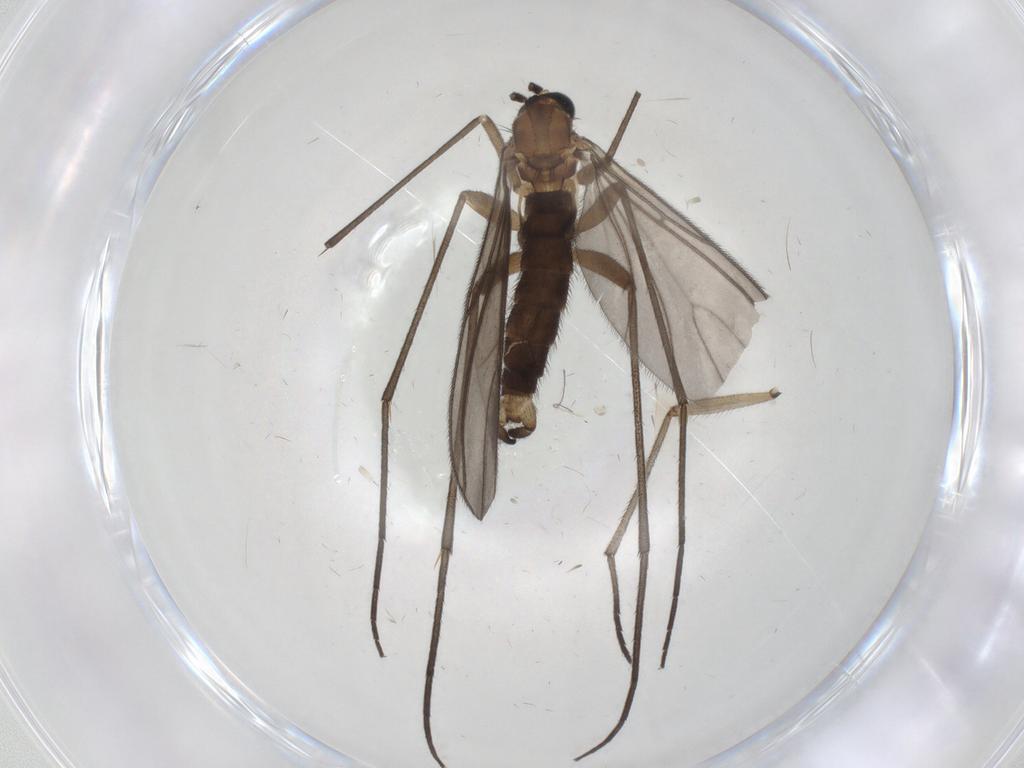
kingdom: Animalia
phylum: Arthropoda
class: Insecta
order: Diptera
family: Sciaridae
